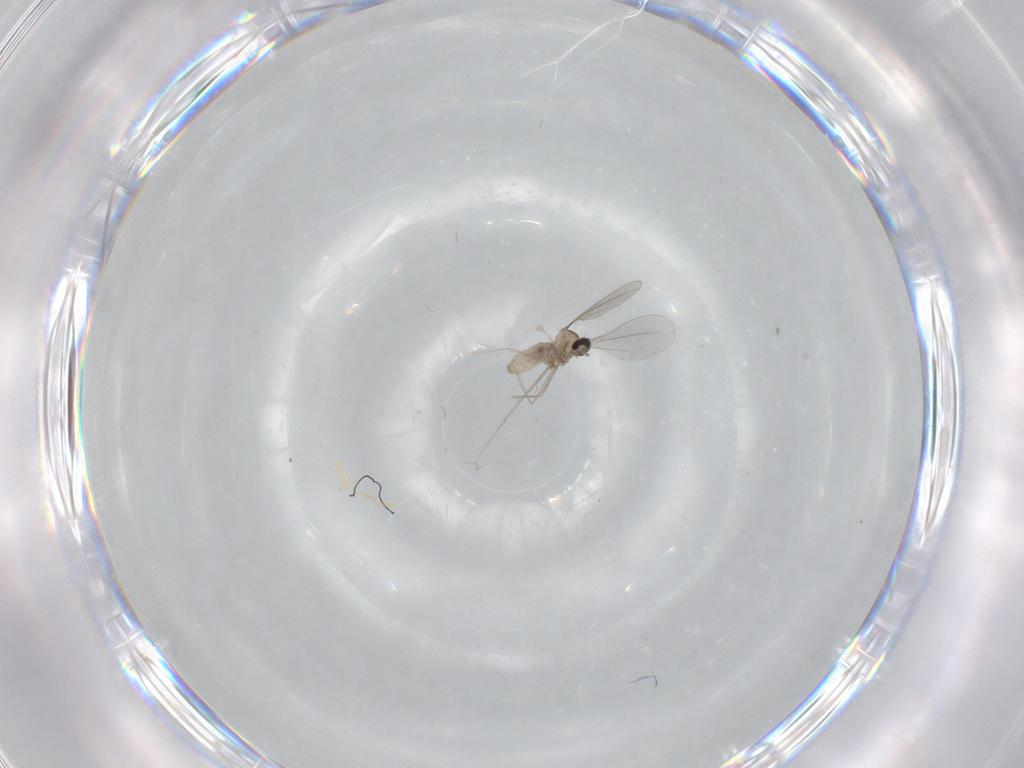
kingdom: Animalia
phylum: Arthropoda
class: Insecta
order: Diptera
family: Cecidomyiidae
